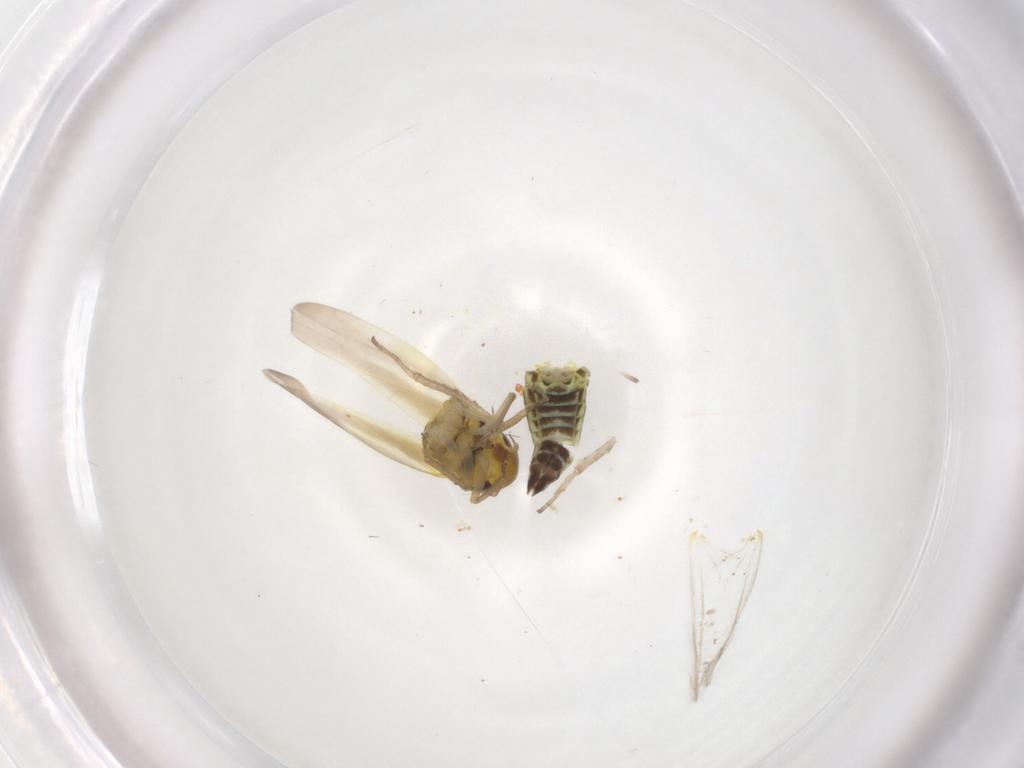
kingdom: Animalia
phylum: Arthropoda
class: Insecta
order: Hemiptera
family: Cicadellidae
